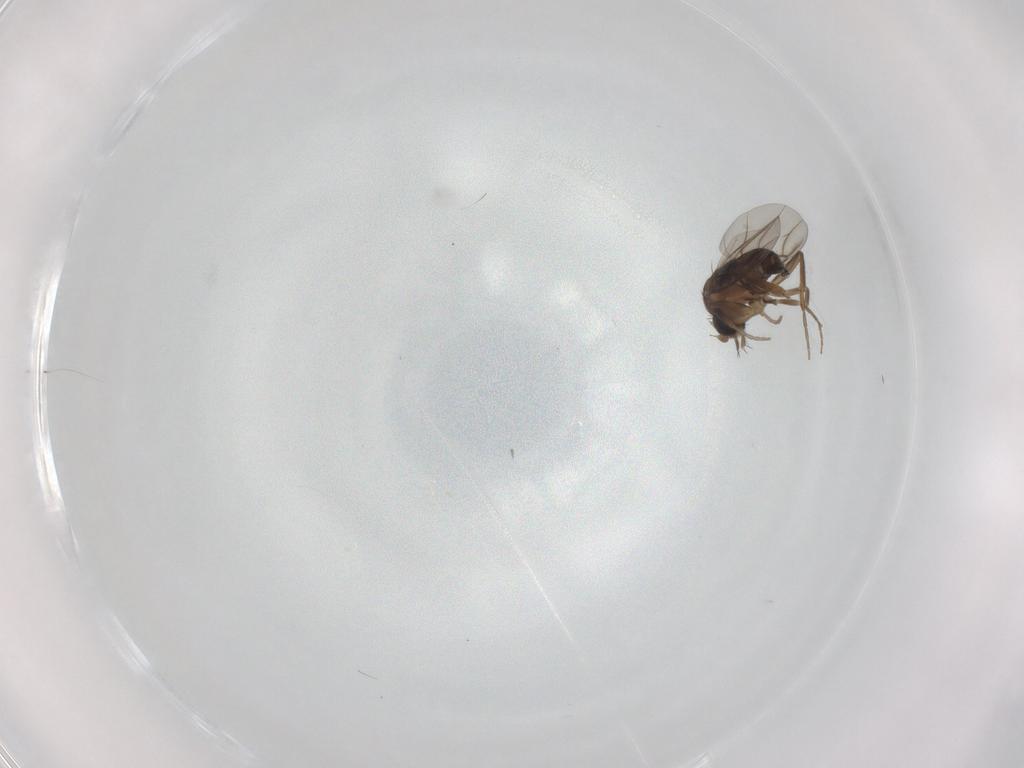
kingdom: Animalia
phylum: Arthropoda
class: Insecta
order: Diptera
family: Phoridae
